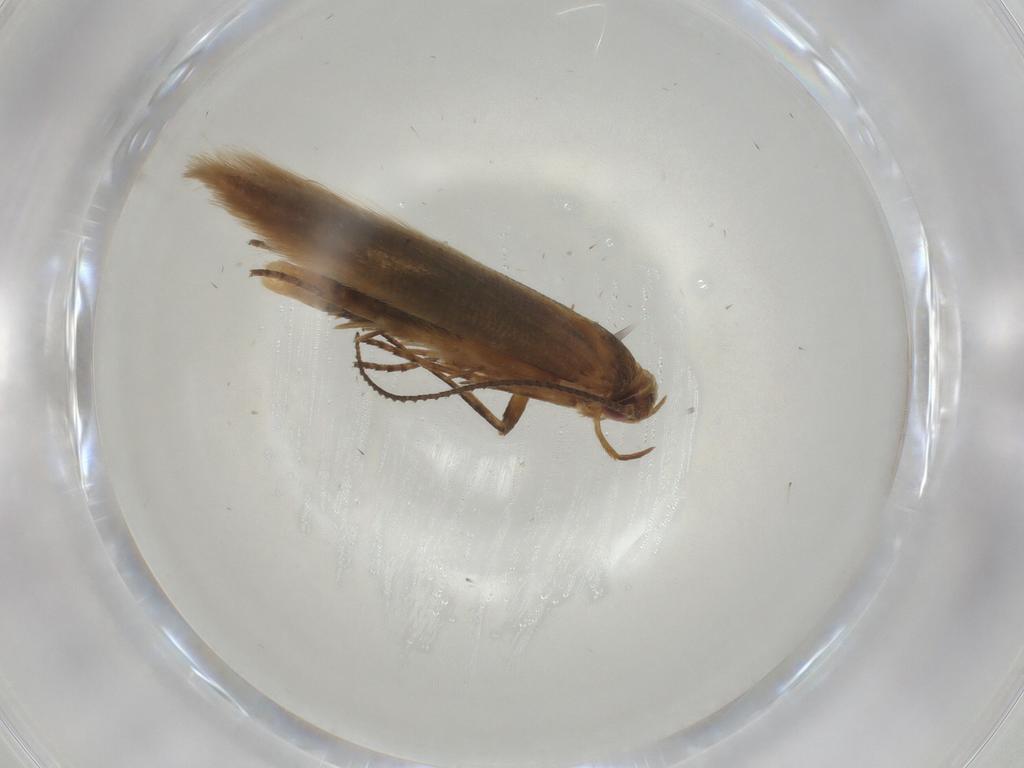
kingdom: Animalia
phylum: Arthropoda
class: Insecta
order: Lepidoptera
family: Elachistidae
